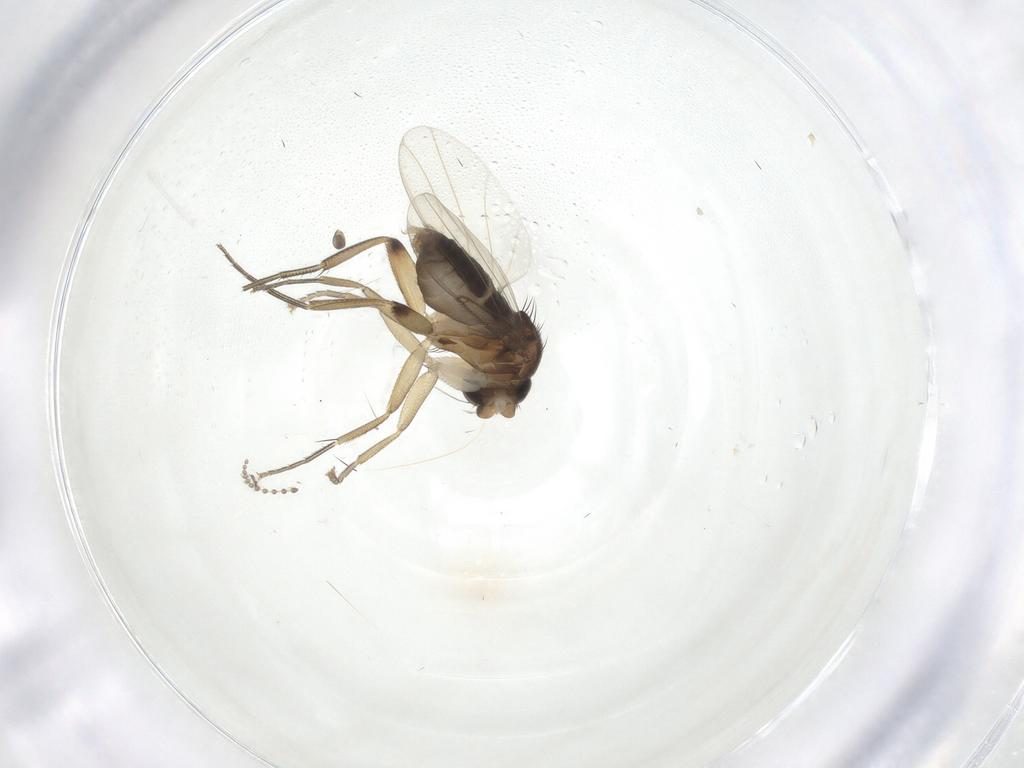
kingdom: Animalia
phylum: Arthropoda
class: Insecta
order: Diptera
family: Phoridae
